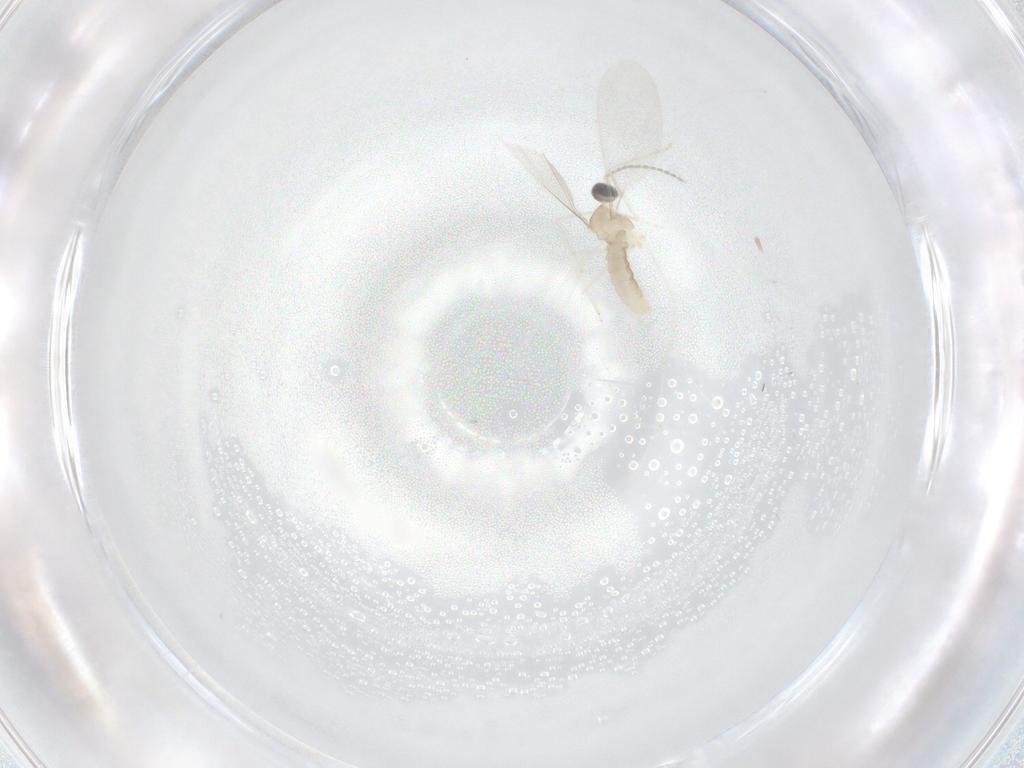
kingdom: Animalia
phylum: Arthropoda
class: Insecta
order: Diptera
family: Cecidomyiidae
